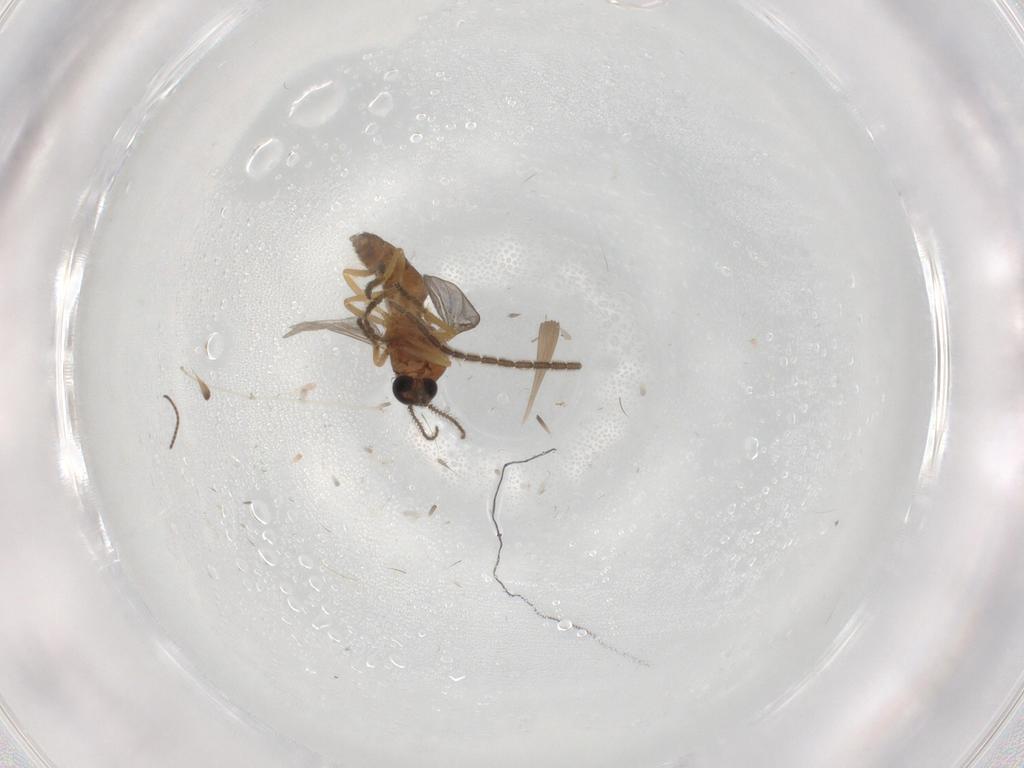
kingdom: Animalia
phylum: Arthropoda
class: Insecta
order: Diptera
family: Ceratopogonidae
